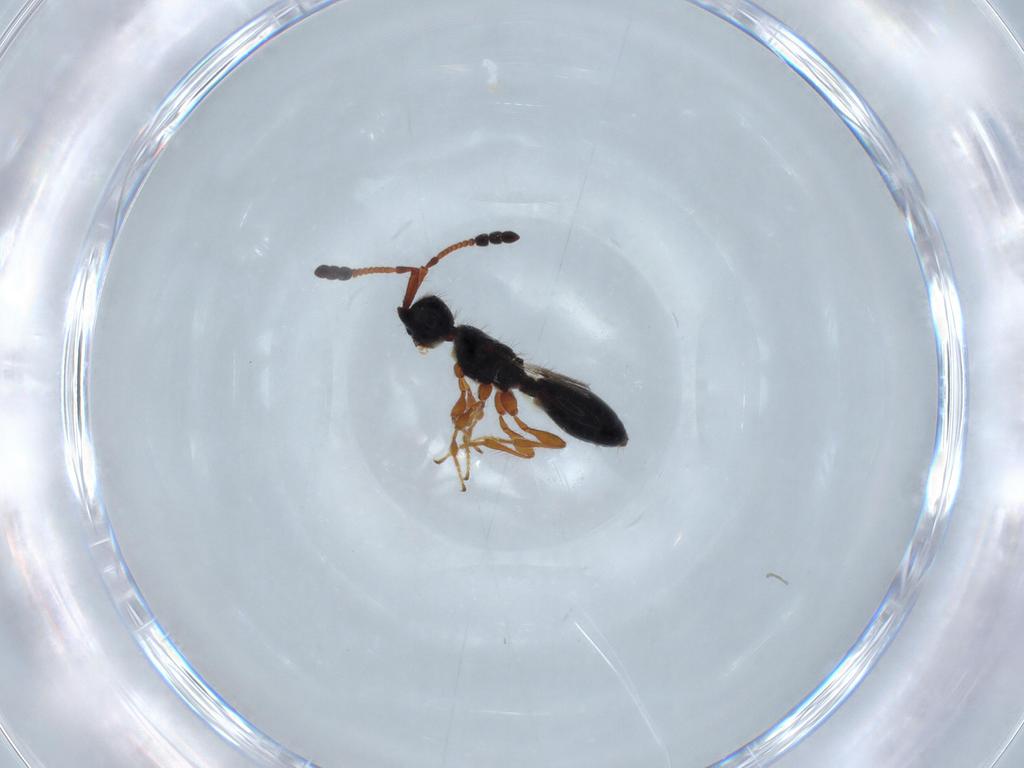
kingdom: Animalia
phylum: Arthropoda
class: Insecta
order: Hymenoptera
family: Diapriidae
